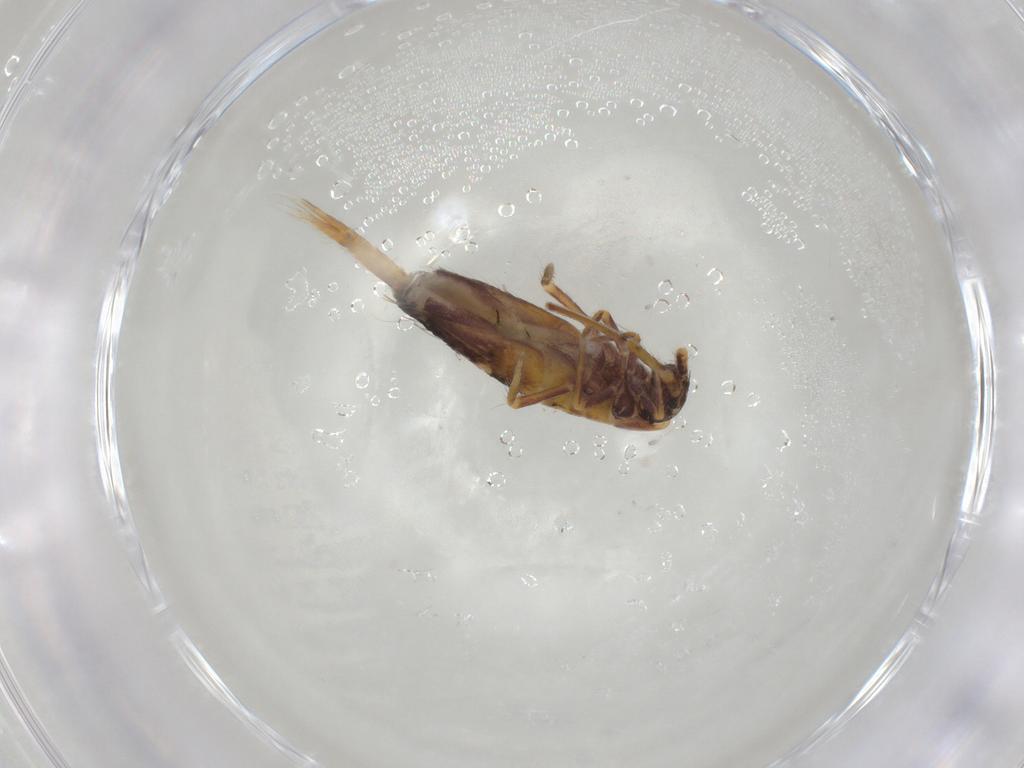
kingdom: Animalia
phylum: Arthropoda
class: Collembola
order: Entomobryomorpha
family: Entomobryidae
